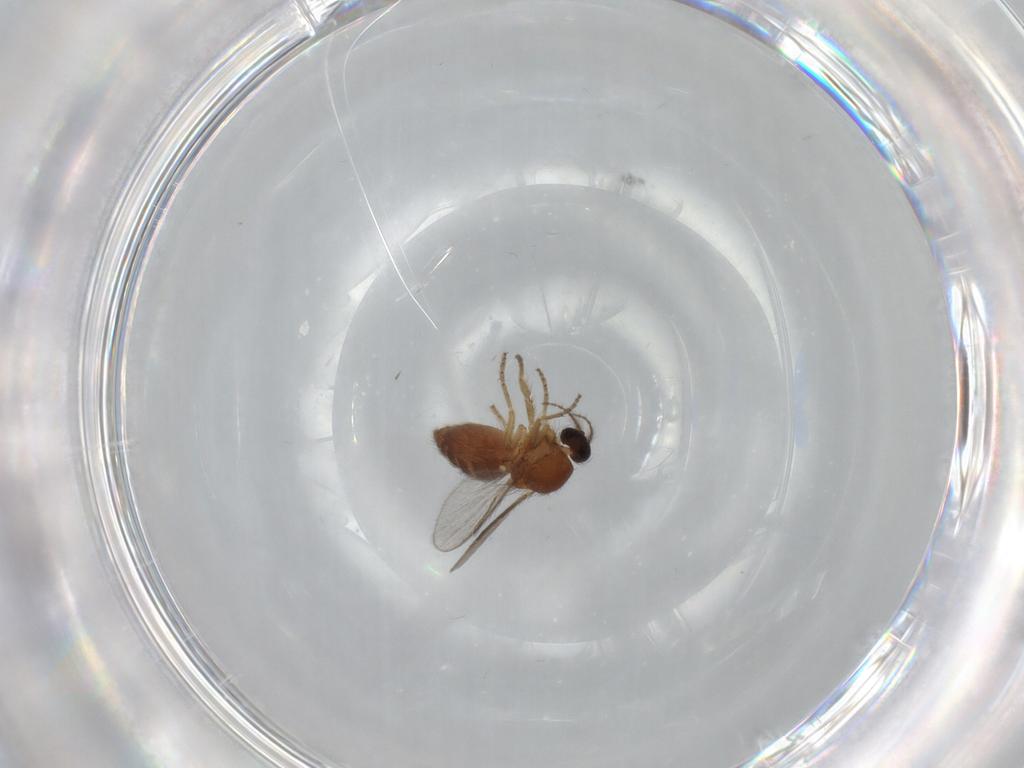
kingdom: Animalia
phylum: Arthropoda
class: Insecta
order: Diptera
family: Ceratopogonidae
